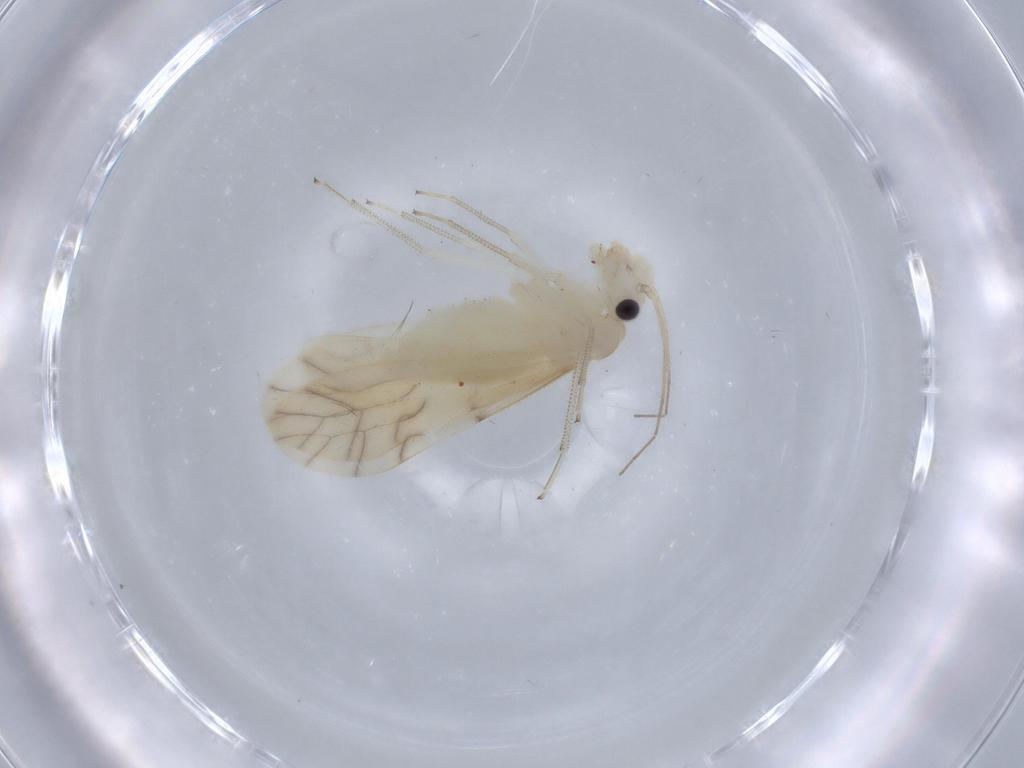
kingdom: Animalia
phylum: Arthropoda
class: Insecta
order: Psocodea
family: Caeciliusidae
